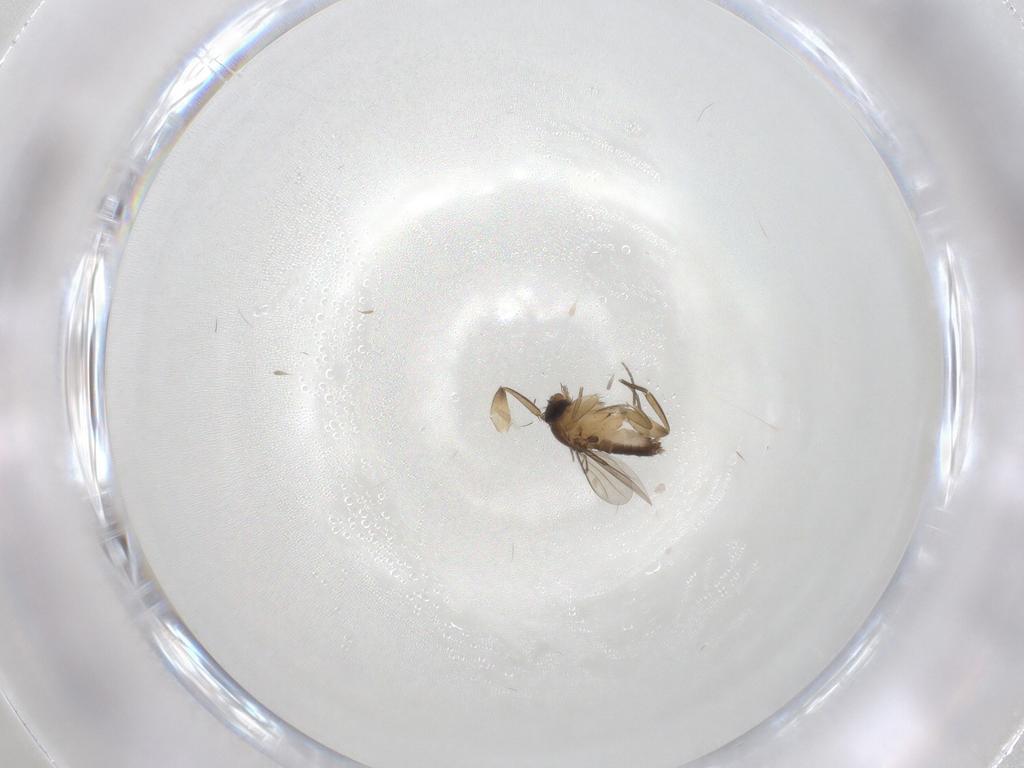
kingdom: Animalia
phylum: Arthropoda
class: Insecta
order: Diptera
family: Phoridae
